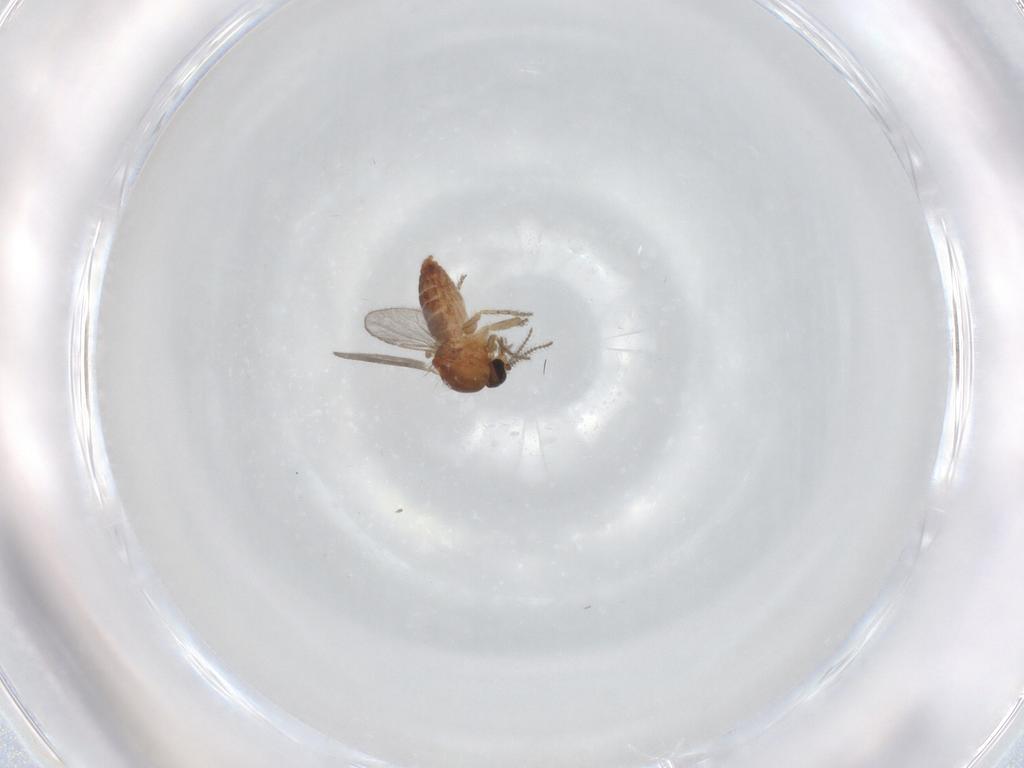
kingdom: Animalia
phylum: Arthropoda
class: Insecta
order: Diptera
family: Ceratopogonidae
